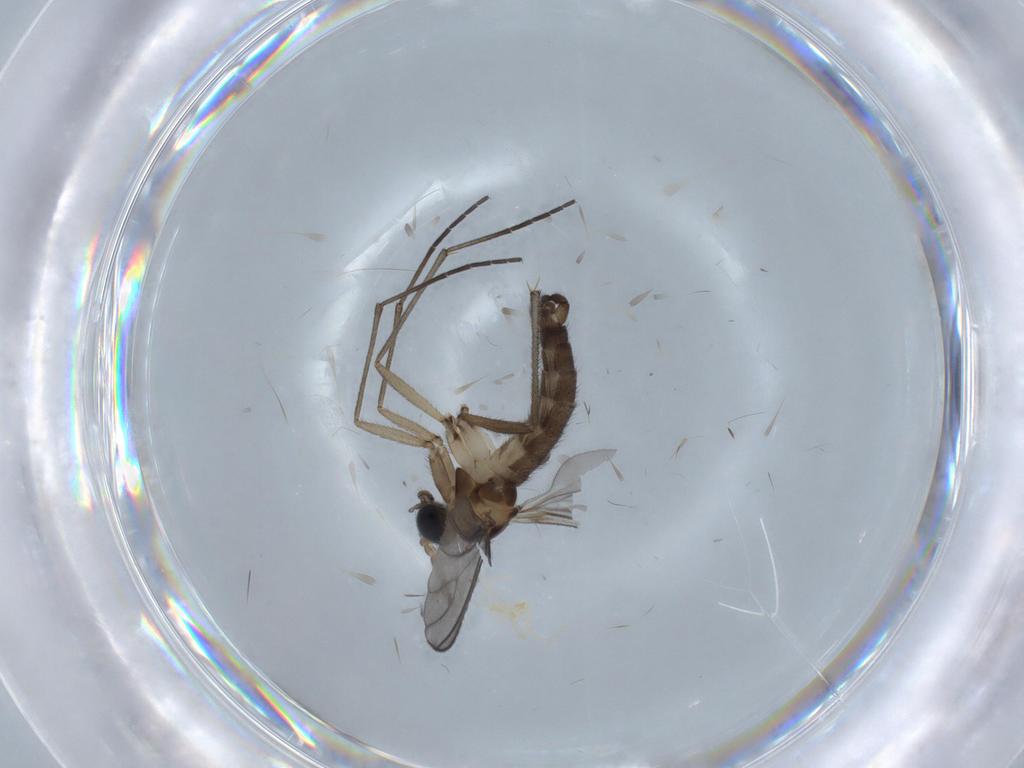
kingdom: Animalia
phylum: Arthropoda
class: Insecta
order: Diptera
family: Sciaridae
